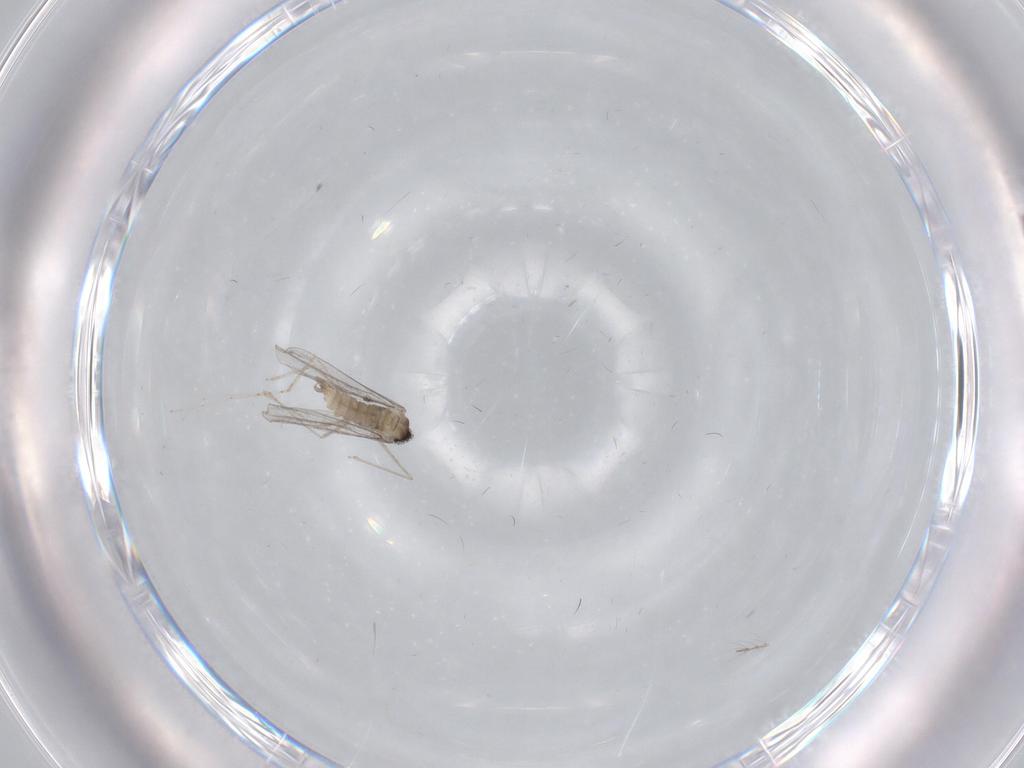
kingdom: Animalia
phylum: Arthropoda
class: Insecta
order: Diptera
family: Cecidomyiidae
